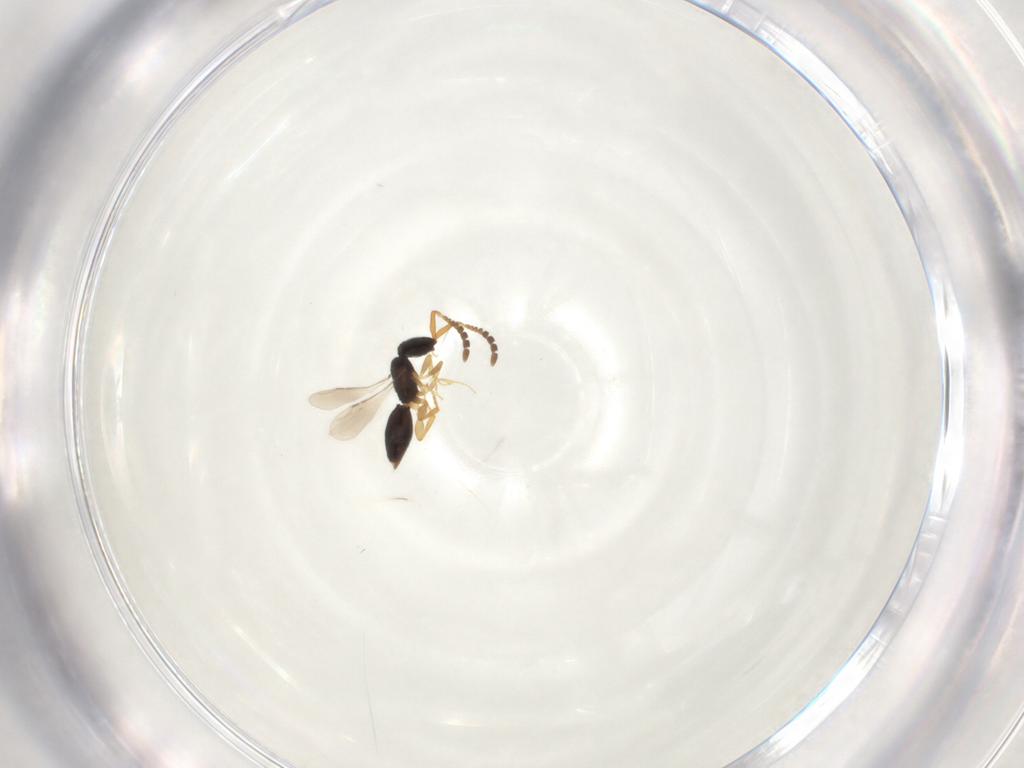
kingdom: Animalia
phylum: Arthropoda
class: Insecta
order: Hymenoptera
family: Ceraphronidae
